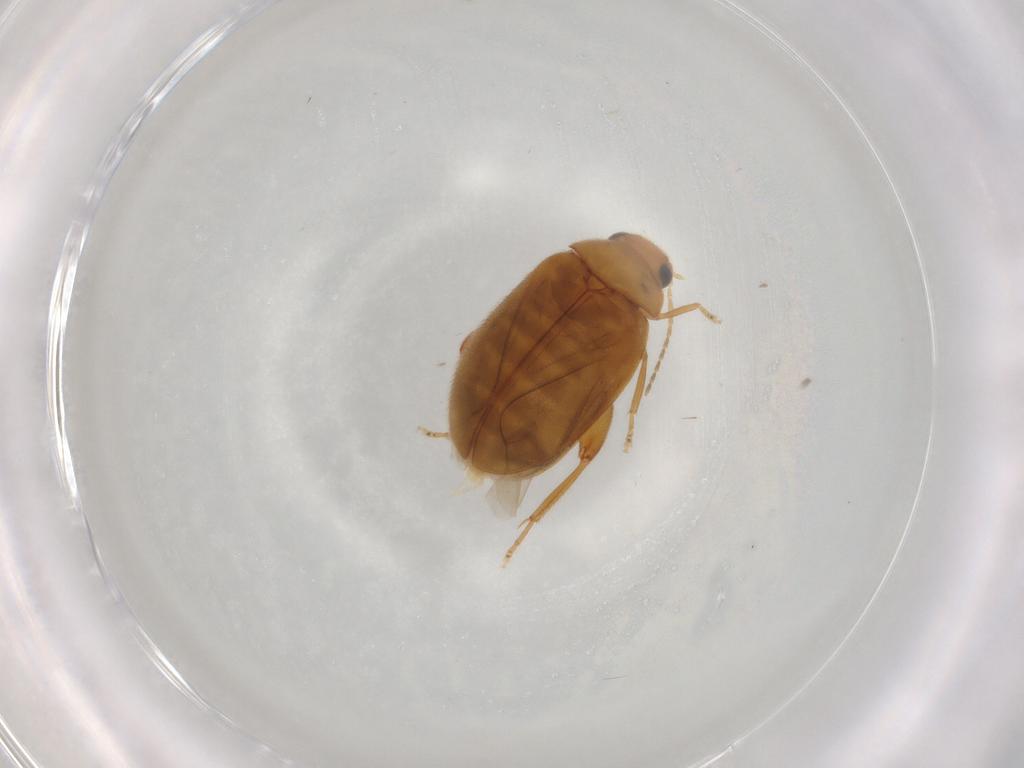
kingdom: Animalia
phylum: Arthropoda
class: Insecta
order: Coleoptera
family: Scirtidae
